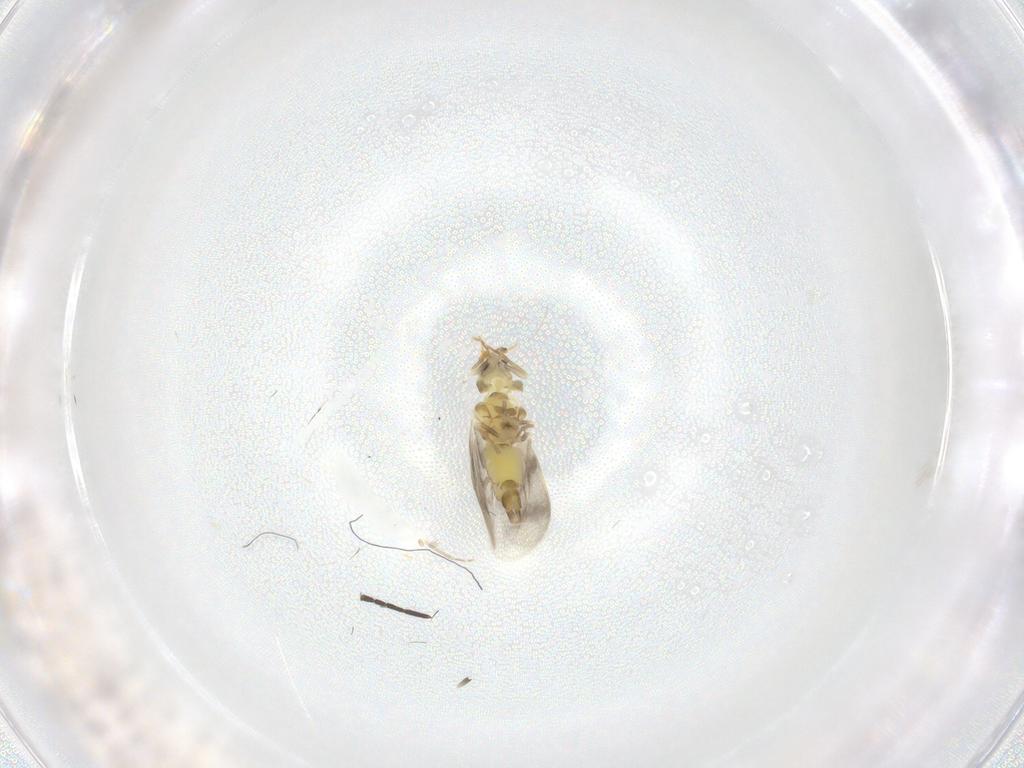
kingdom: Animalia
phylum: Arthropoda
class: Insecta
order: Hemiptera
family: Aleyrodidae
